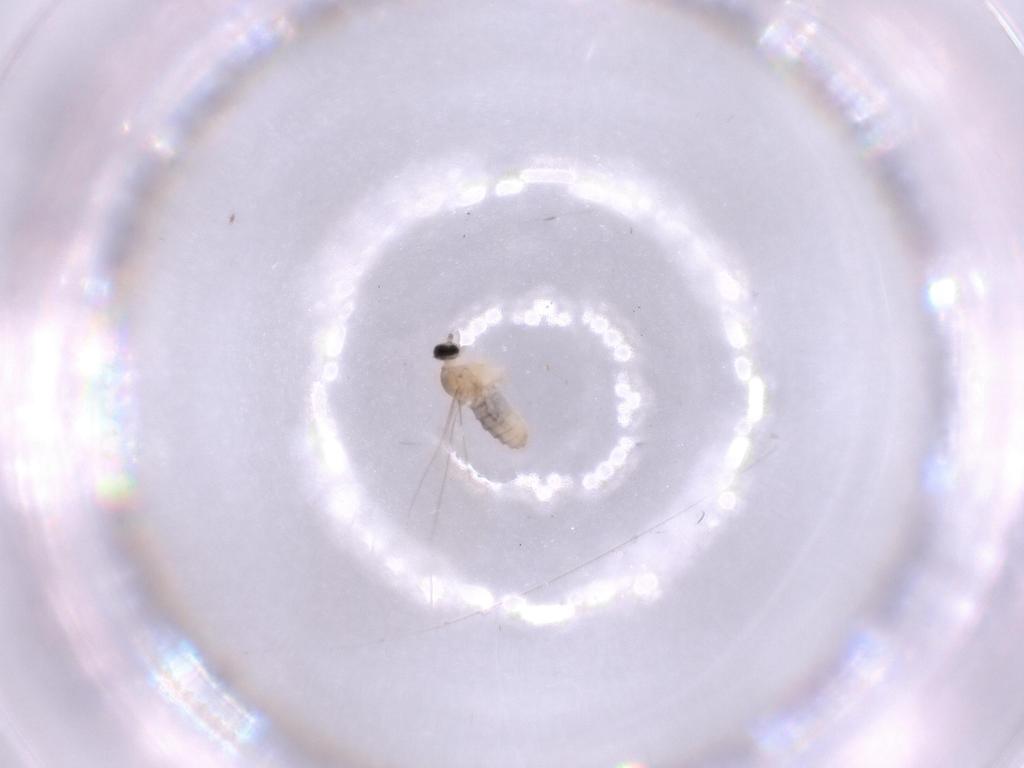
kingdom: Animalia
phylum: Arthropoda
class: Insecta
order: Diptera
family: Cecidomyiidae
